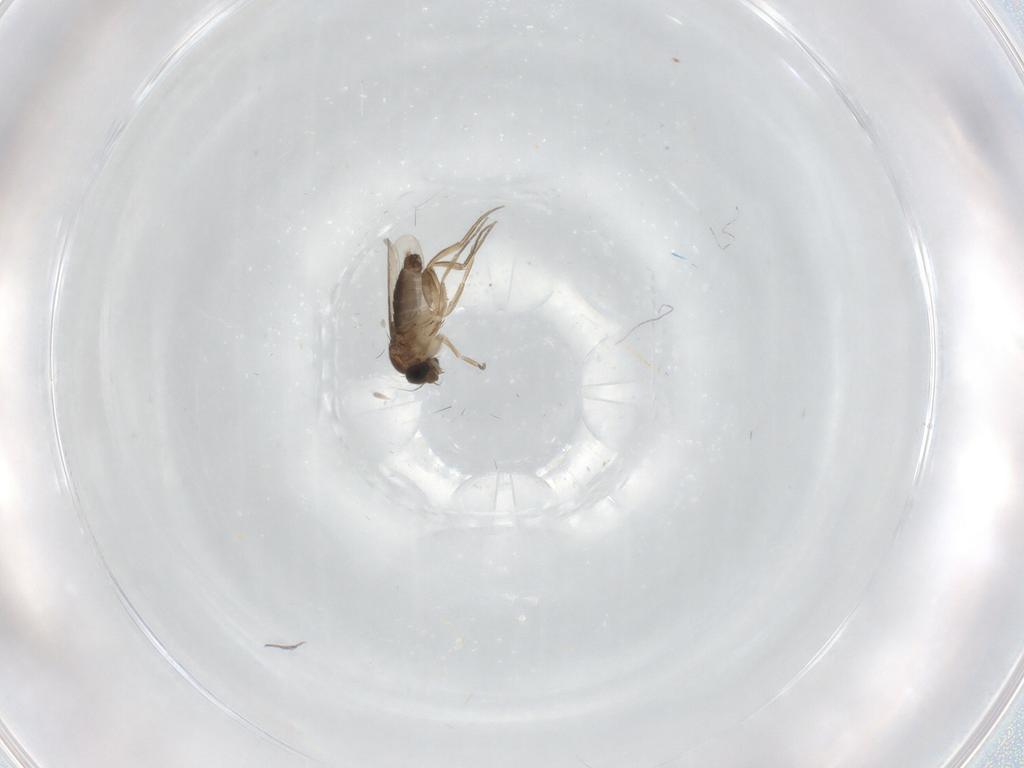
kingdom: Animalia
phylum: Arthropoda
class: Insecta
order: Diptera
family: Phoridae
